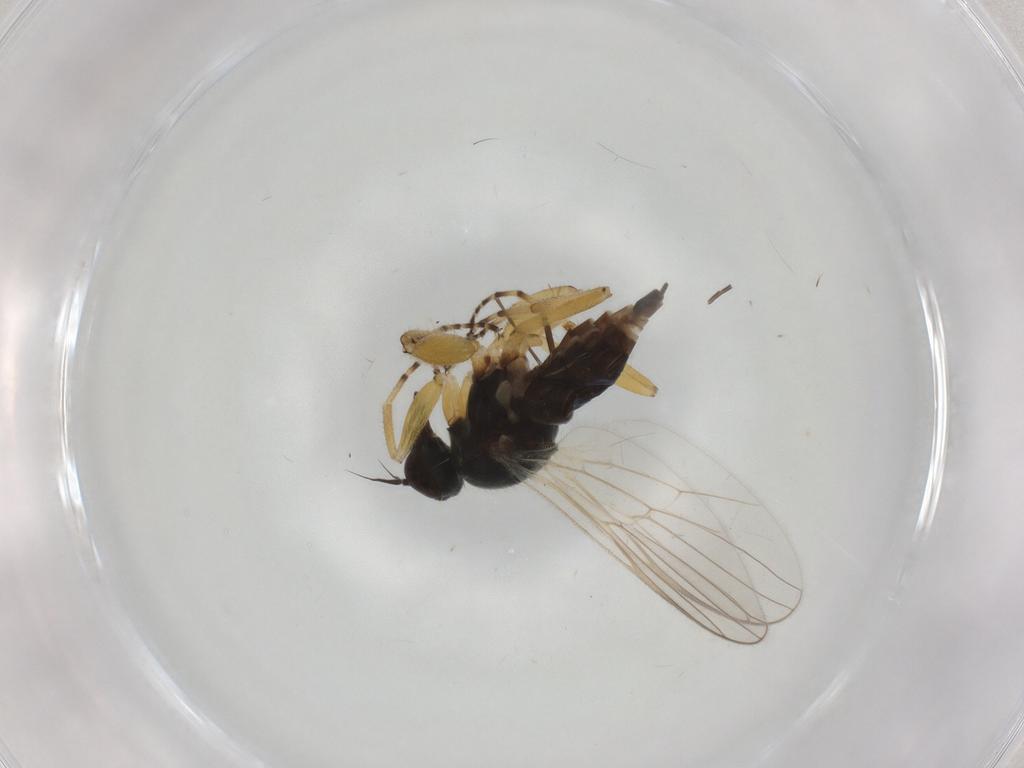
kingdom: Animalia
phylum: Arthropoda
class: Insecta
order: Diptera
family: Hybotidae
